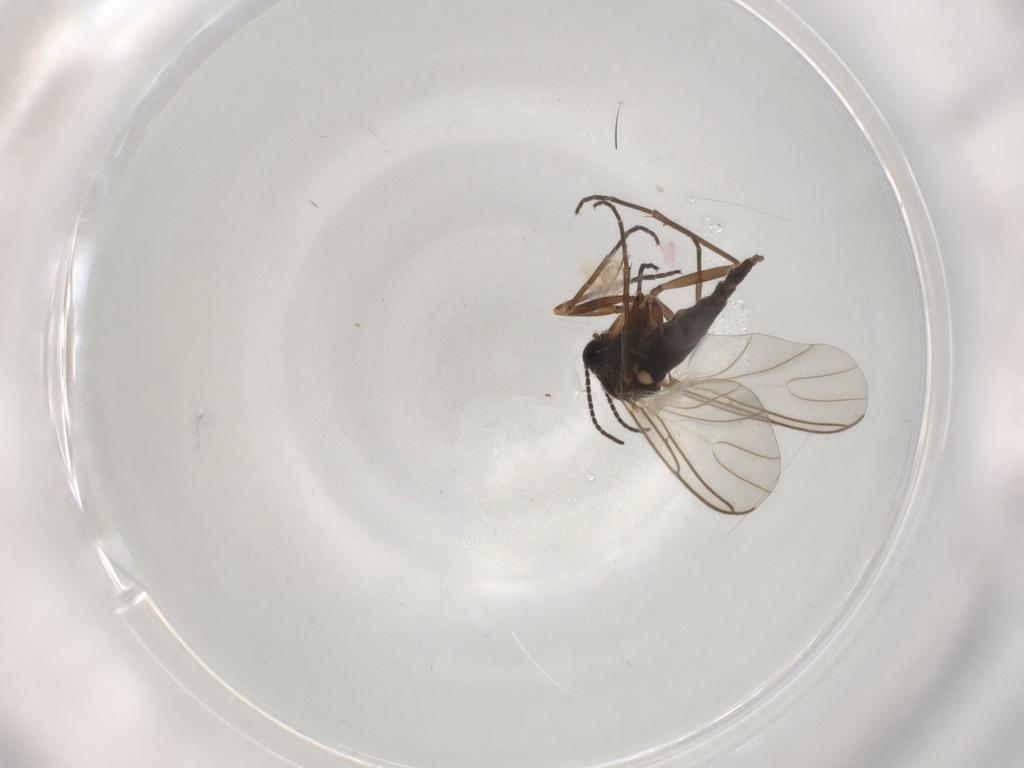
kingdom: Animalia
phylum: Arthropoda
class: Insecta
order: Diptera
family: Sciaridae
